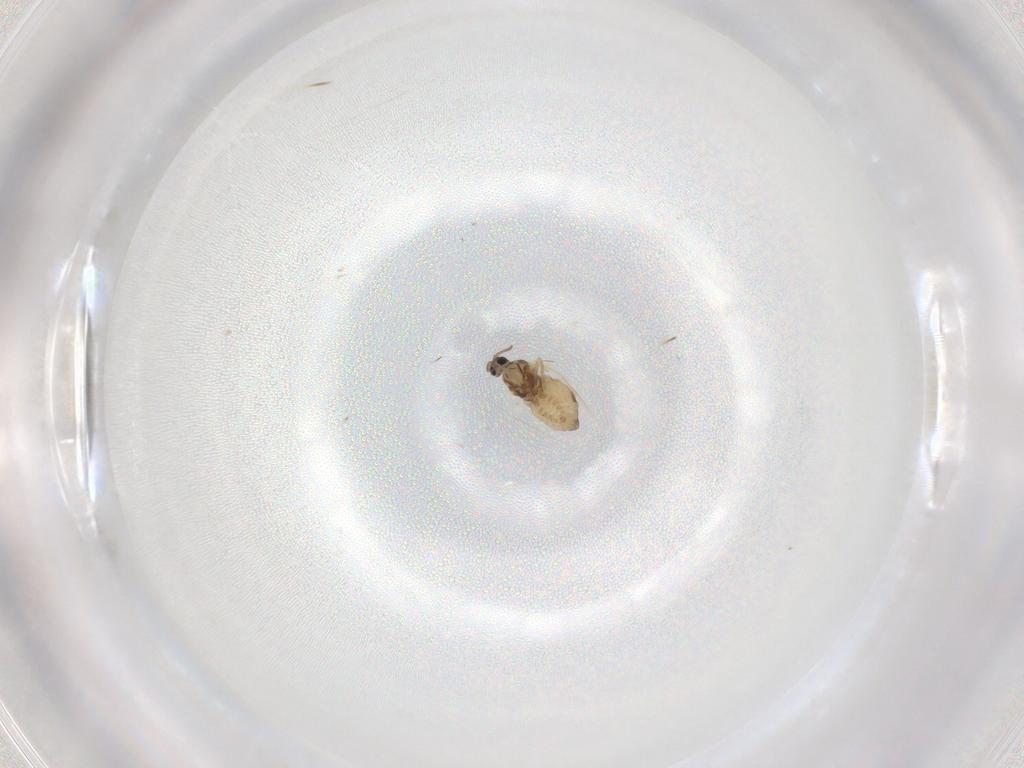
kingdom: Animalia
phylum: Arthropoda
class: Insecta
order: Diptera
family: Cecidomyiidae
